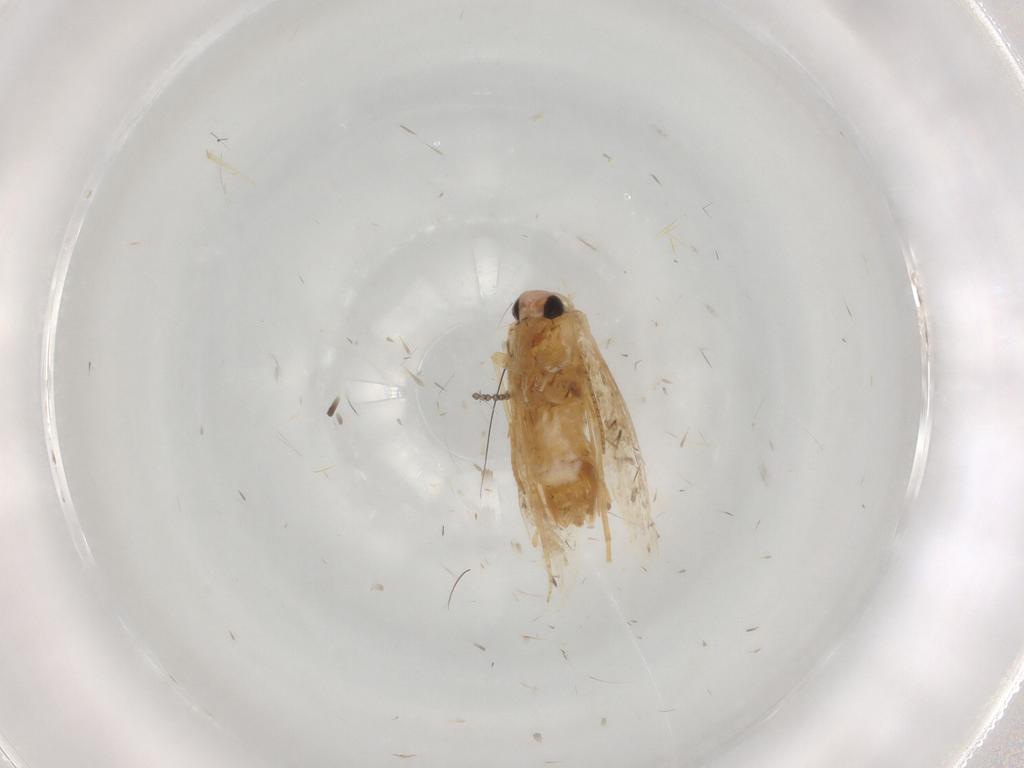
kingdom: Animalia
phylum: Arthropoda
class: Insecta
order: Lepidoptera
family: Noctuidae
